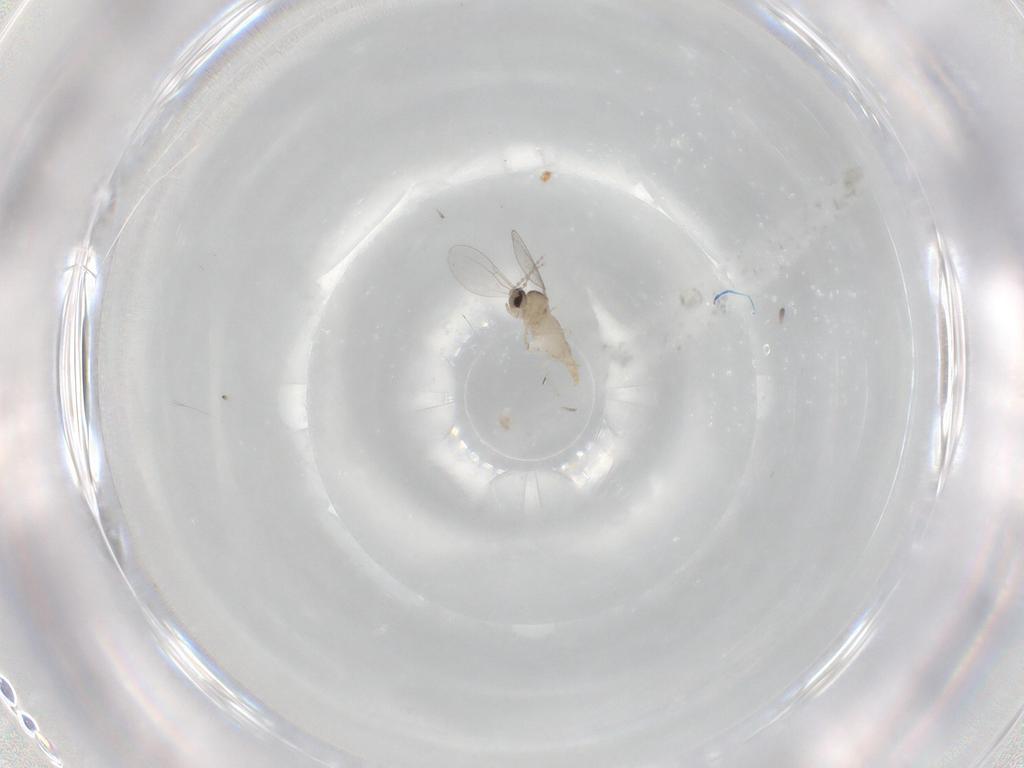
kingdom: Animalia
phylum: Arthropoda
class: Insecta
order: Diptera
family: Cecidomyiidae
